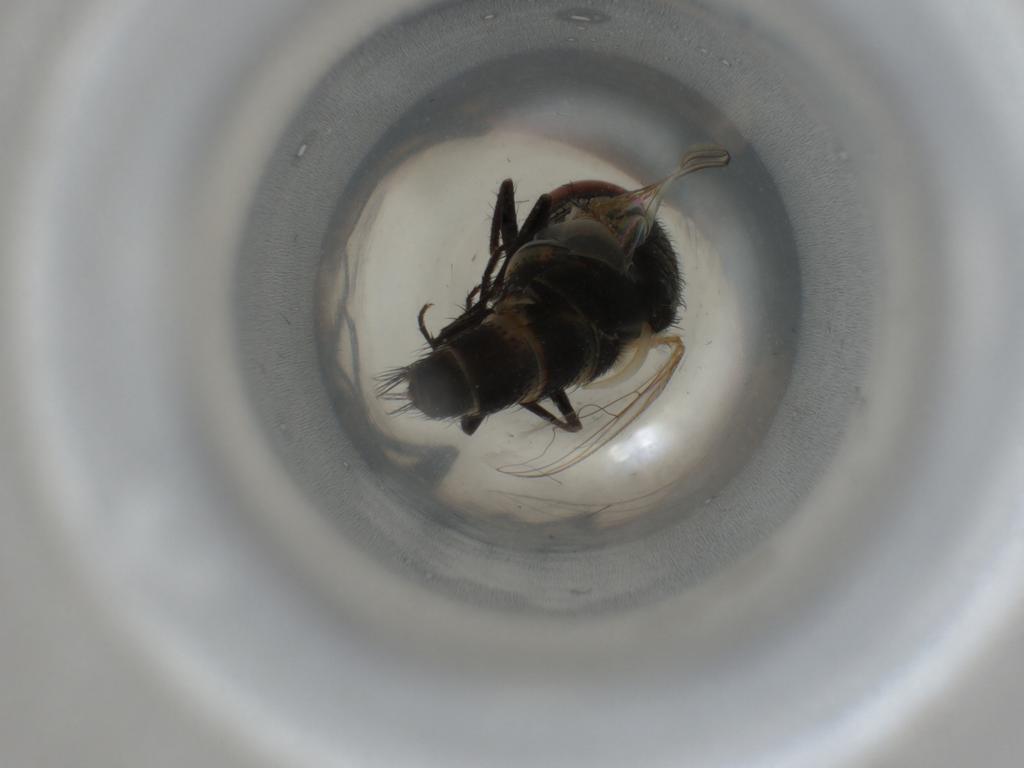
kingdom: Animalia
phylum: Arthropoda
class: Insecta
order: Diptera
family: Sarcophagidae
